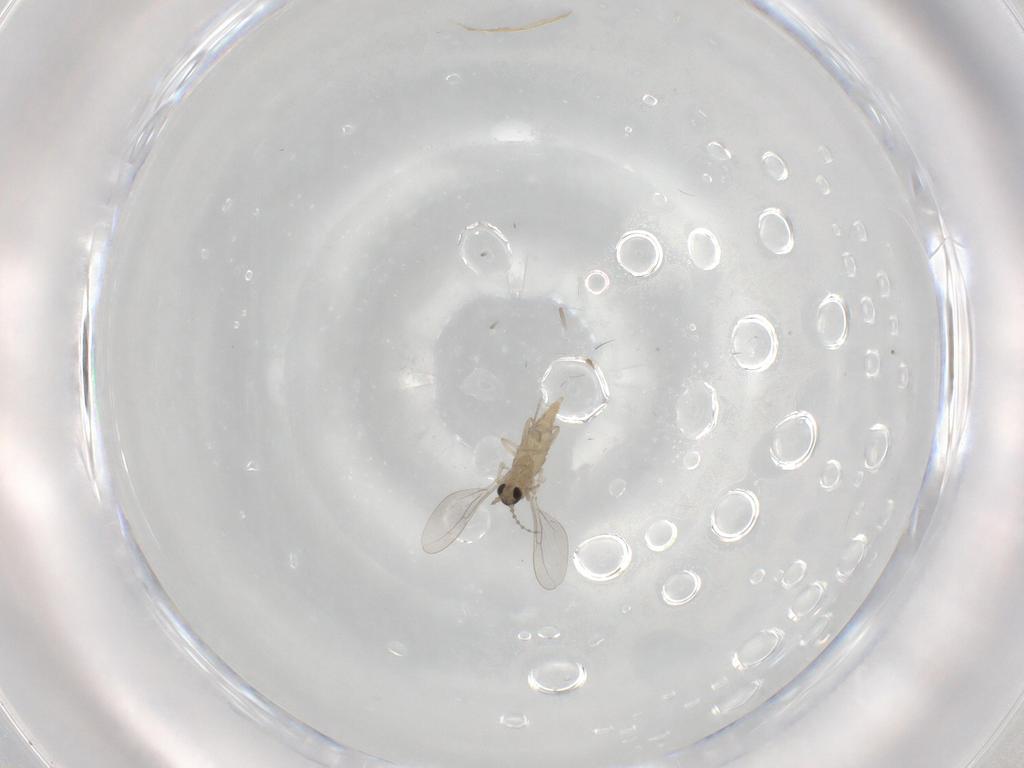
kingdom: Animalia
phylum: Arthropoda
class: Insecta
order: Diptera
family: Cecidomyiidae
